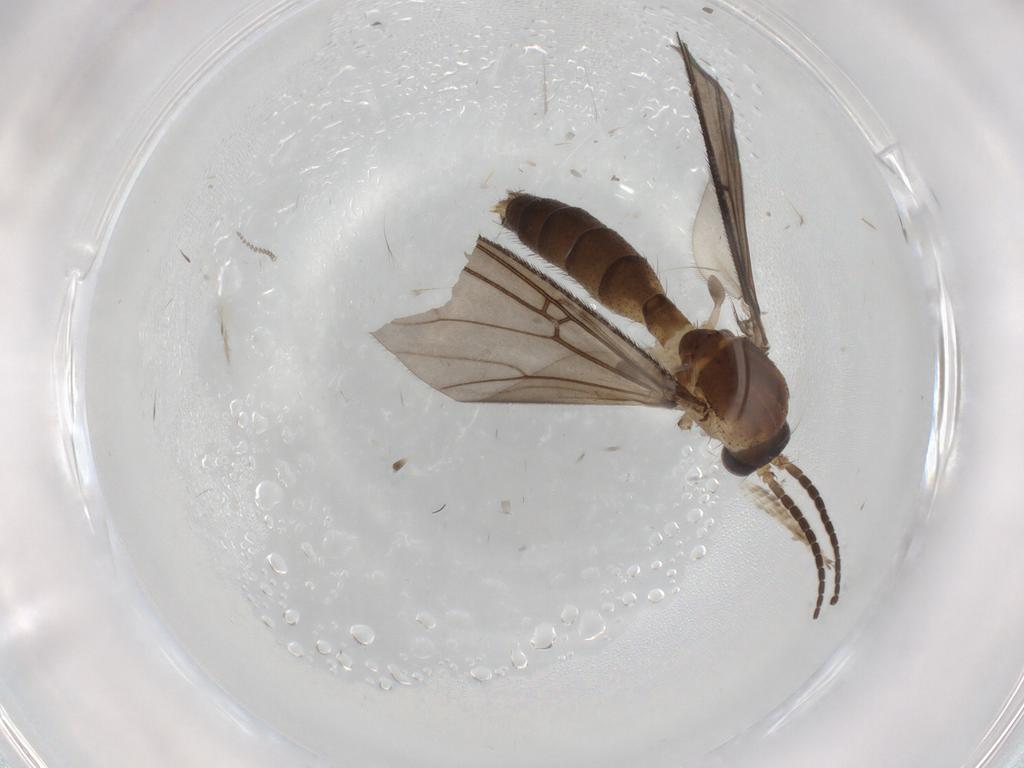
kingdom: Animalia
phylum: Arthropoda
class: Insecta
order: Diptera
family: Sciaridae
